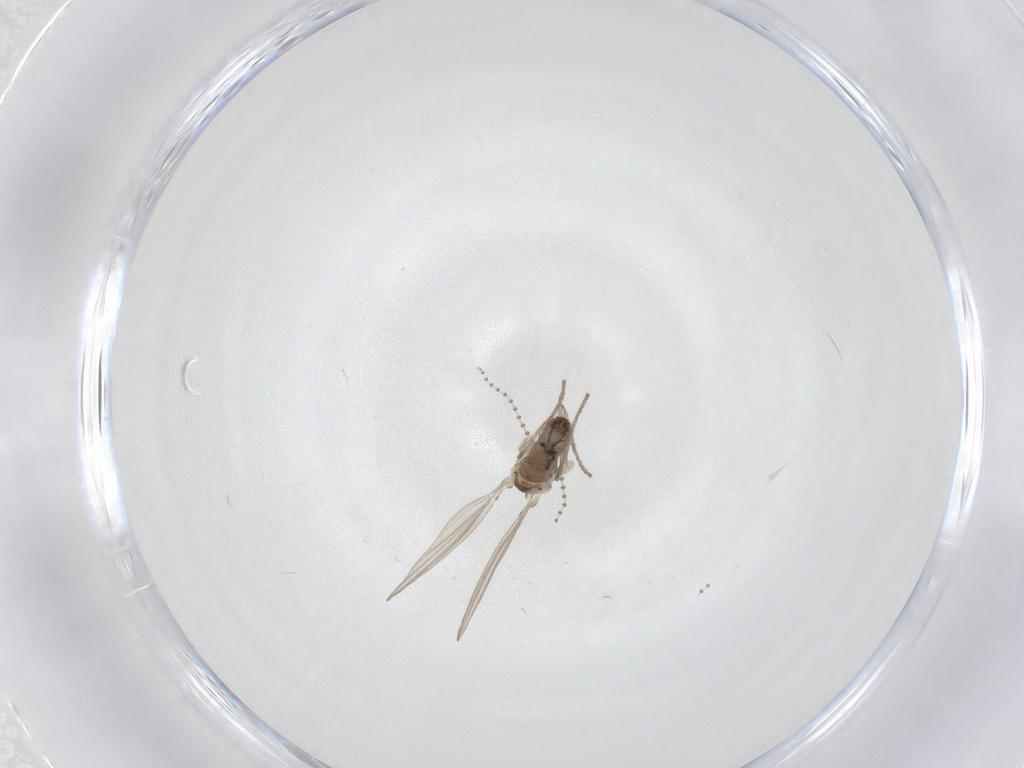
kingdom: Animalia
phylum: Arthropoda
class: Insecta
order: Diptera
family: Psychodidae
